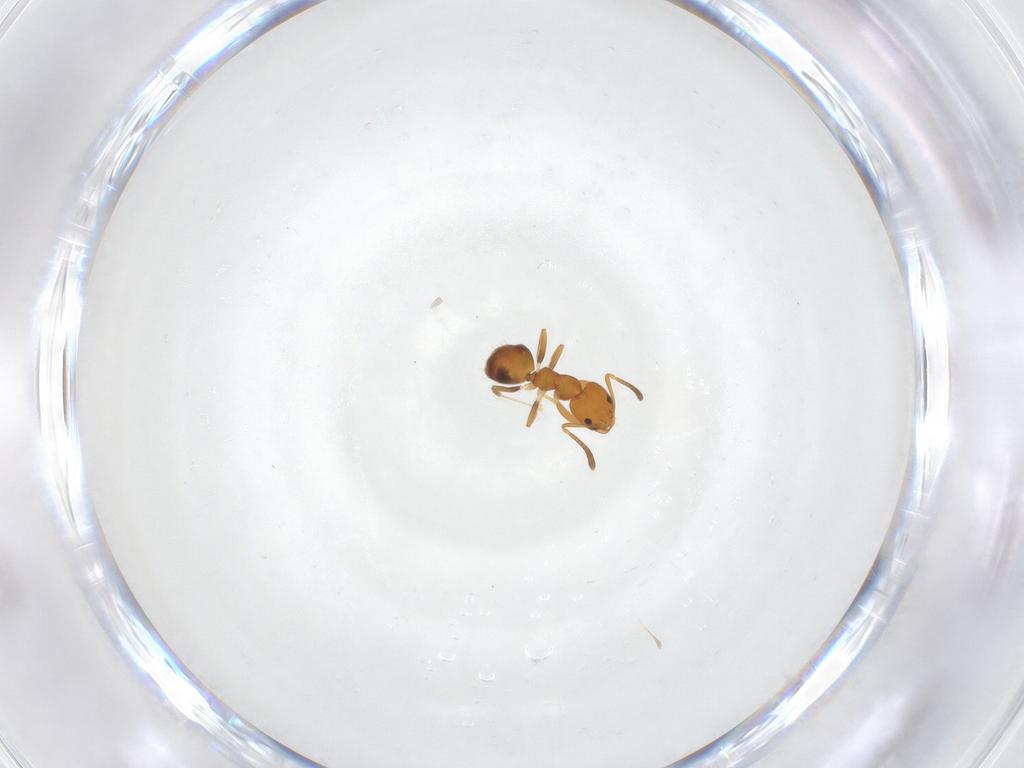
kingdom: Animalia
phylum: Arthropoda
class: Insecta
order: Hymenoptera
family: Formicidae
